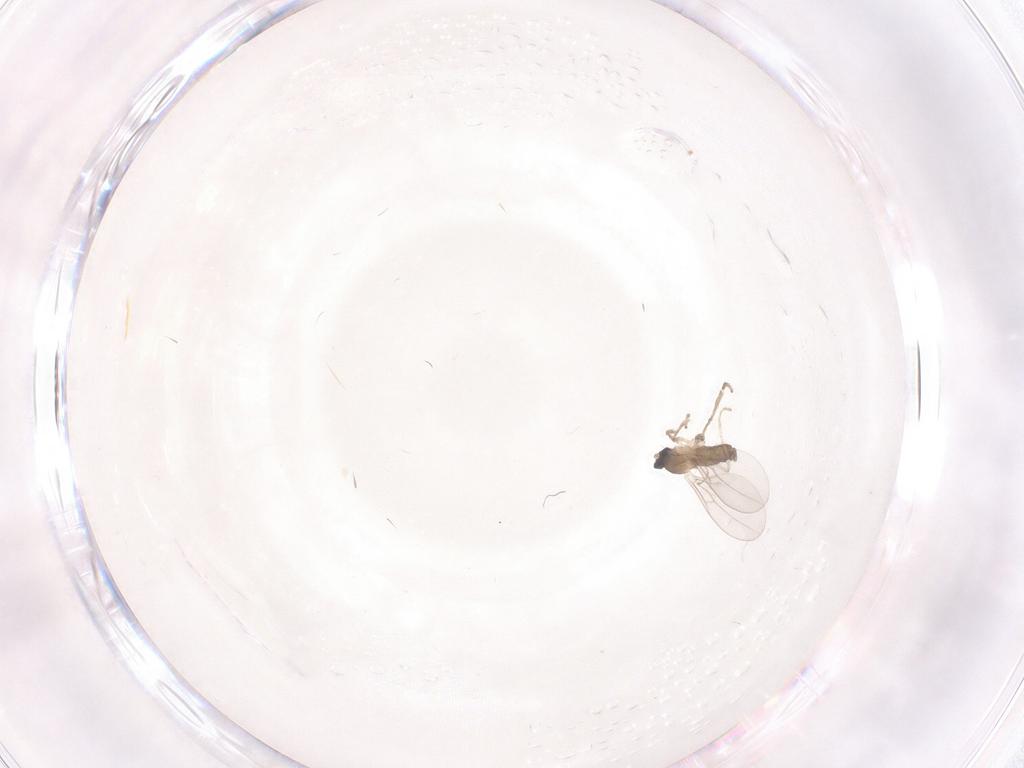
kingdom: Animalia
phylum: Arthropoda
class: Insecta
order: Diptera
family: Chironomidae
